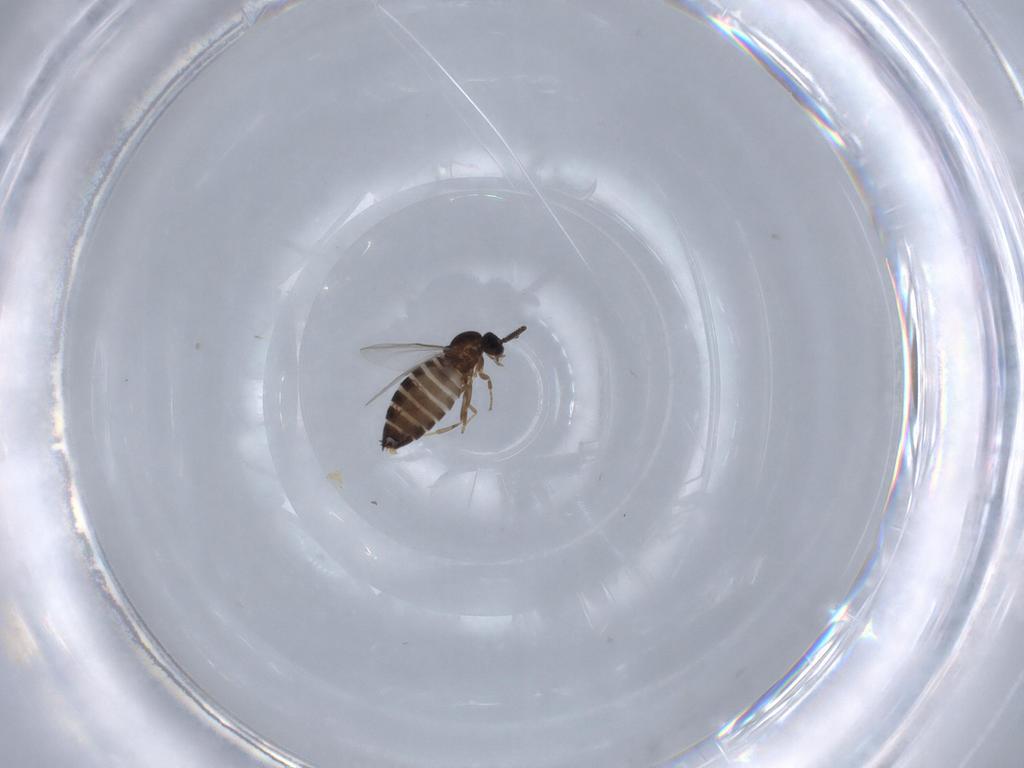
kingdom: Animalia
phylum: Arthropoda
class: Insecta
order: Diptera
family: Scatopsidae
